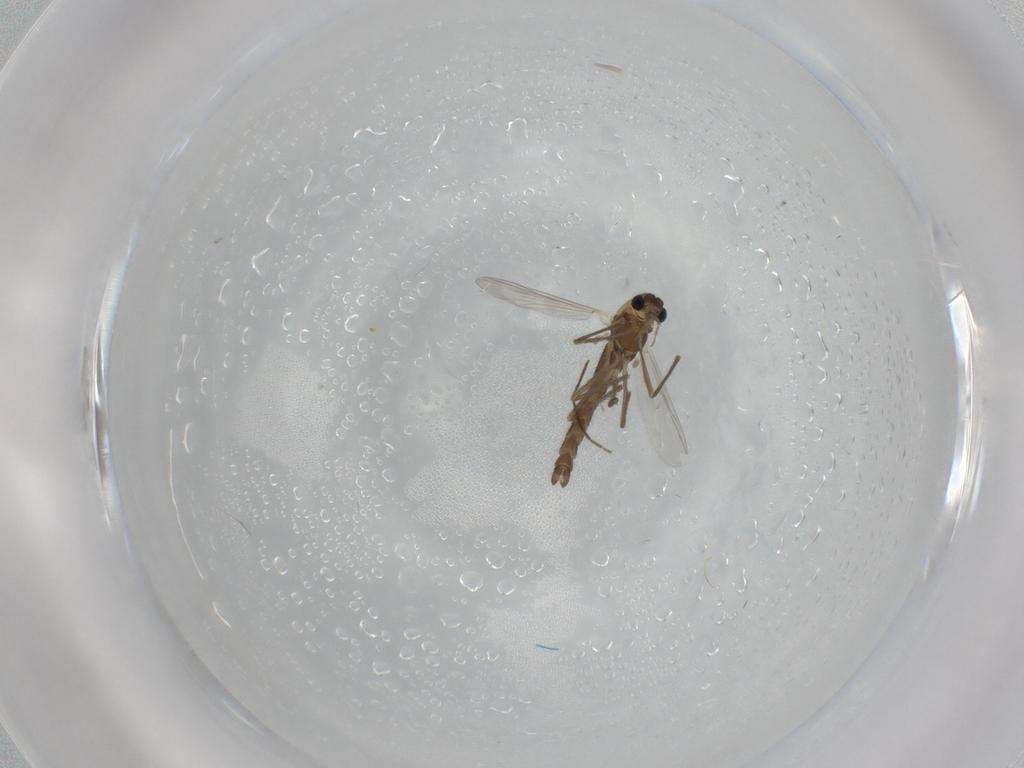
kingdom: Animalia
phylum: Arthropoda
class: Insecta
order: Diptera
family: Chironomidae
